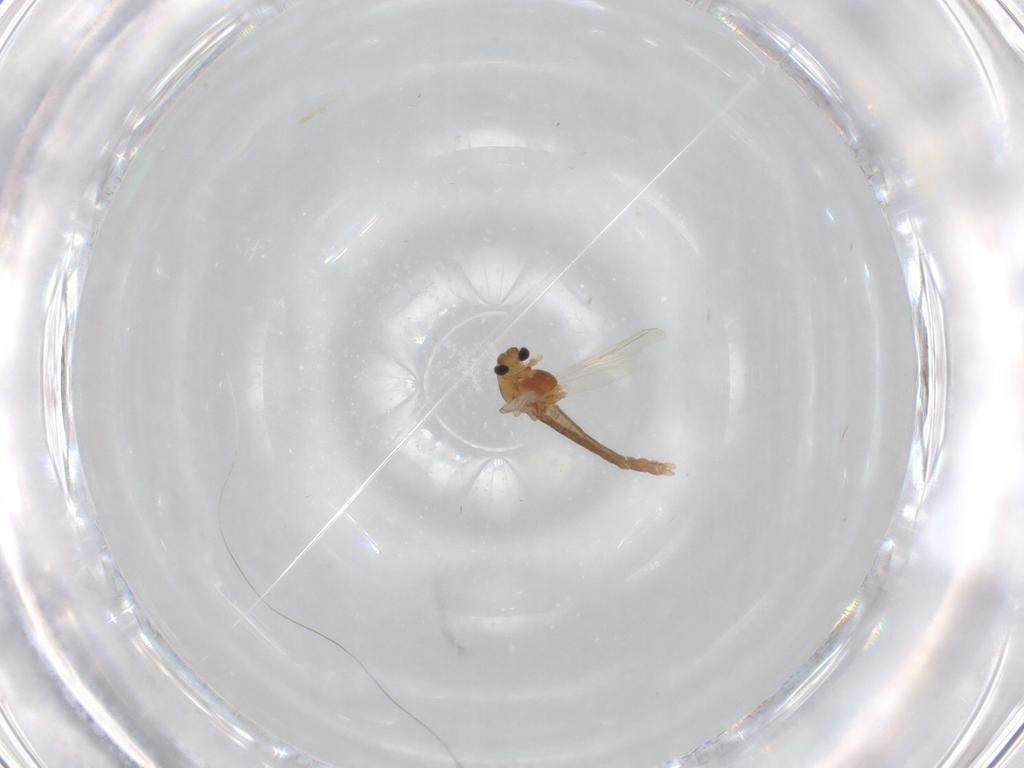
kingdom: Animalia
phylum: Arthropoda
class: Insecta
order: Diptera
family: Chironomidae
